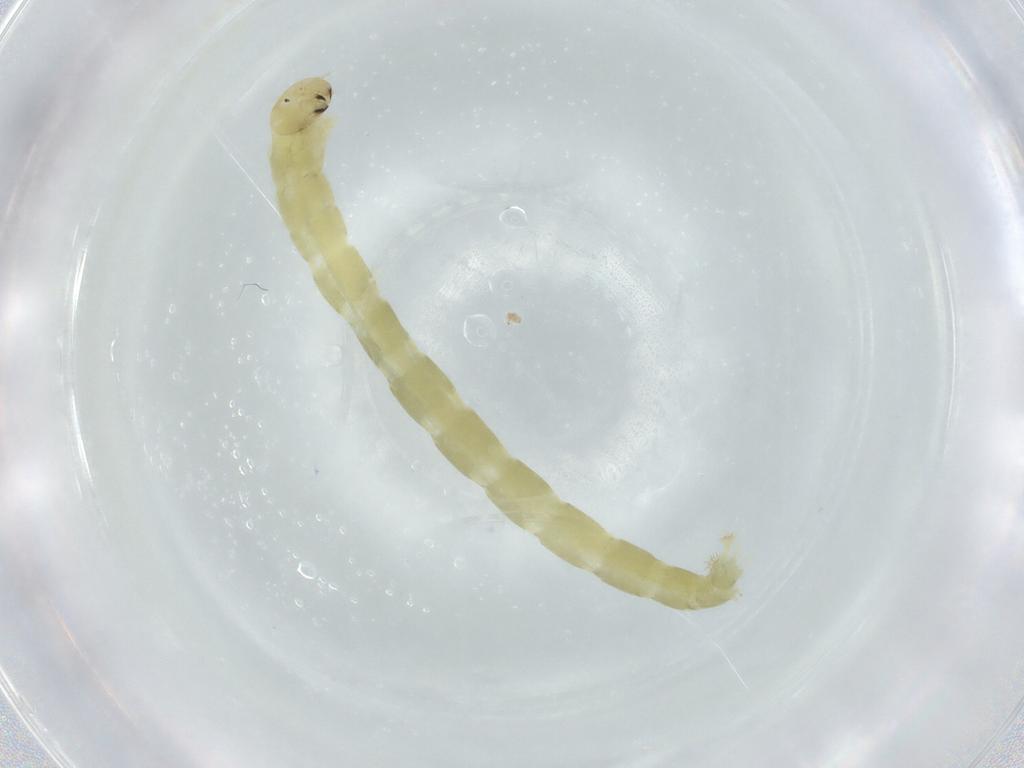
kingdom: Animalia
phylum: Arthropoda
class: Insecta
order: Diptera
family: Chironomidae
